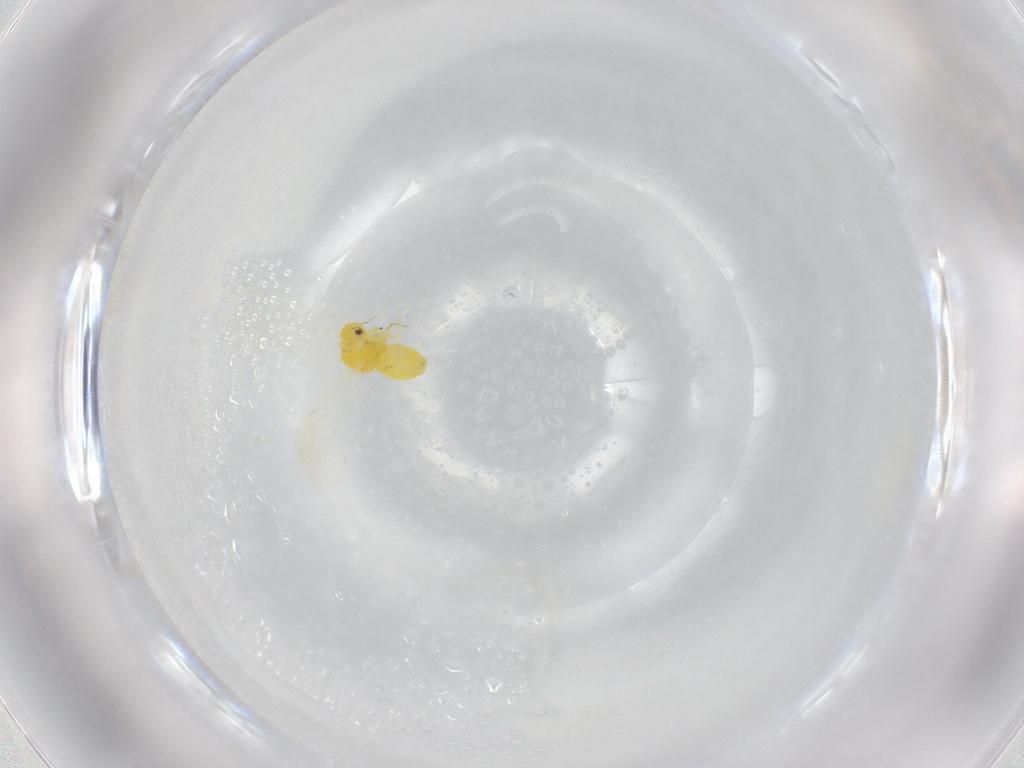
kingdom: Animalia
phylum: Arthropoda
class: Insecta
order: Hemiptera
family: Aleyrodidae
